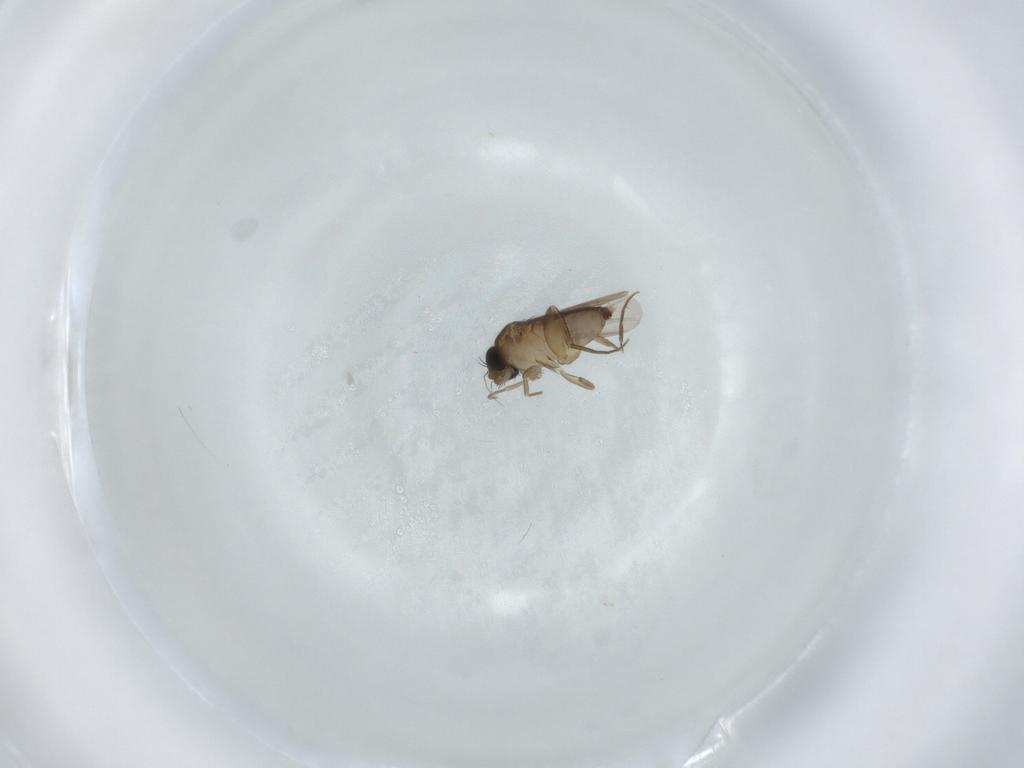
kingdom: Animalia
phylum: Arthropoda
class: Insecta
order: Diptera
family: Phoridae
